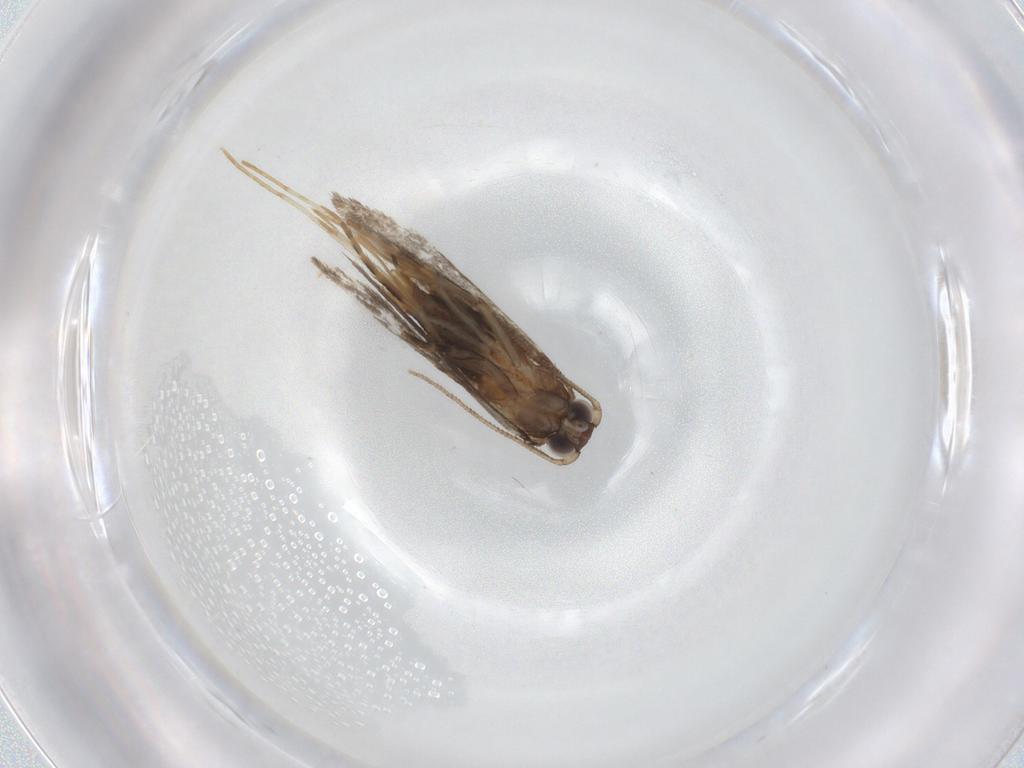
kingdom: Animalia
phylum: Arthropoda
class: Insecta
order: Lepidoptera
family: Tineidae
